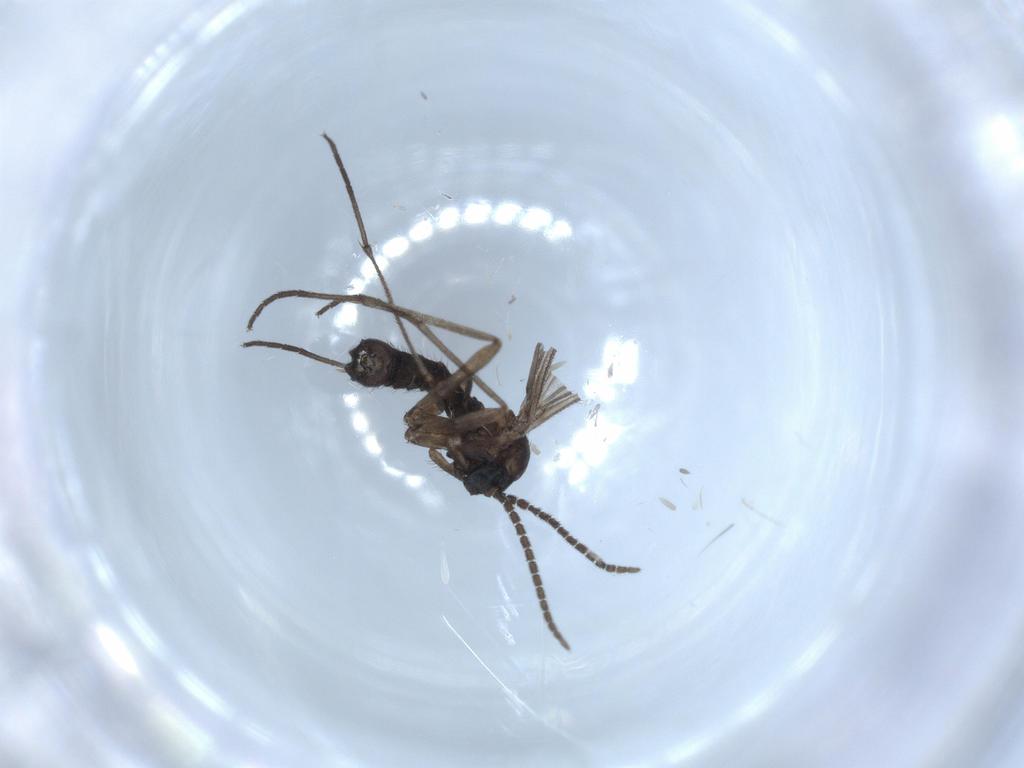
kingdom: Animalia
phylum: Arthropoda
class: Insecta
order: Diptera
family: Sciaridae
